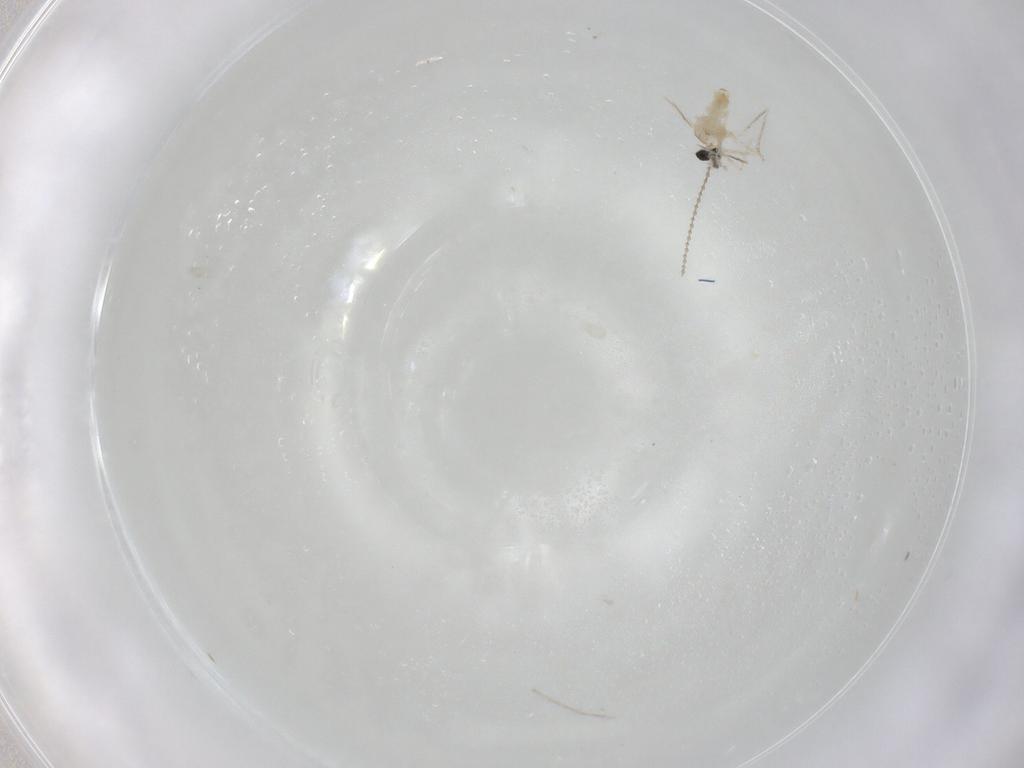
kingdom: Animalia
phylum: Arthropoda
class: Insecta
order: Diptera
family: Cecidomyiidae
